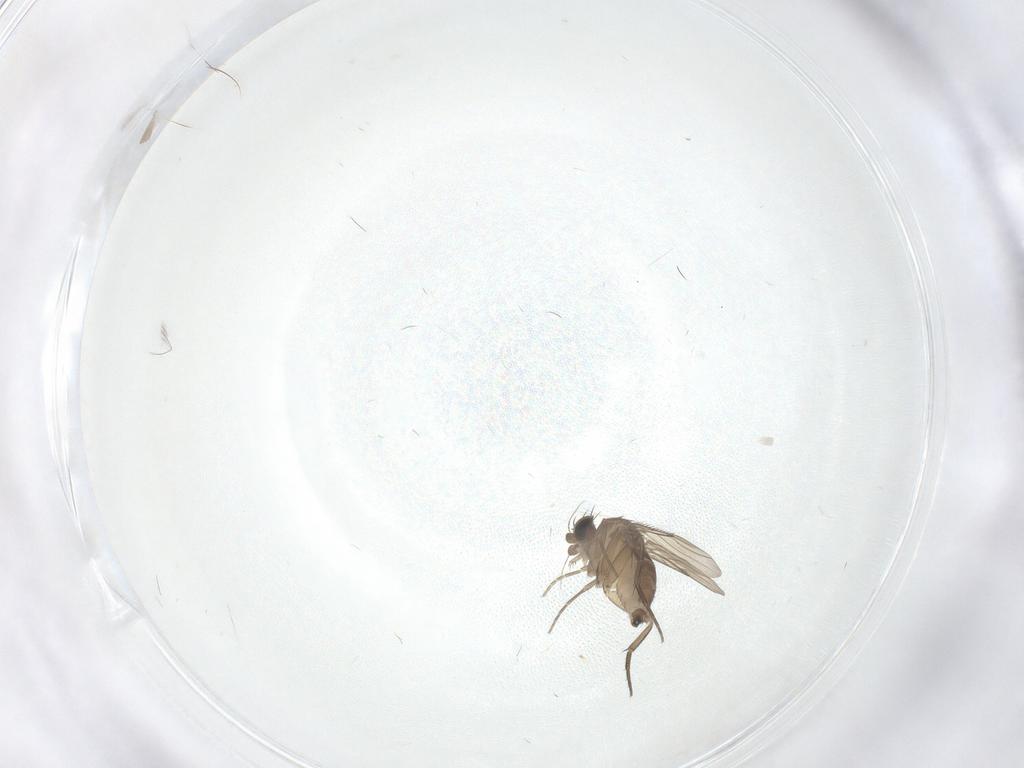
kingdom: Animalia
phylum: Arthropoda
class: Insecta
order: Diptera
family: Phoridae
